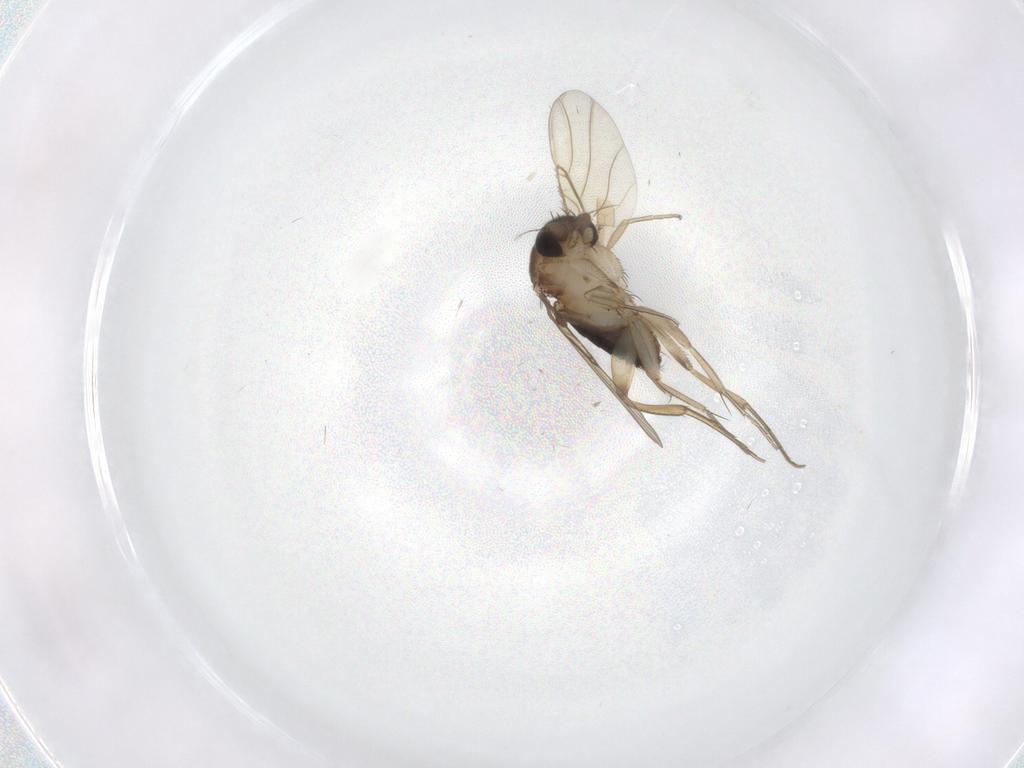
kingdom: Animalia
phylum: Arthropoda
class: Insecta
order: Diptera
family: Phoridae
